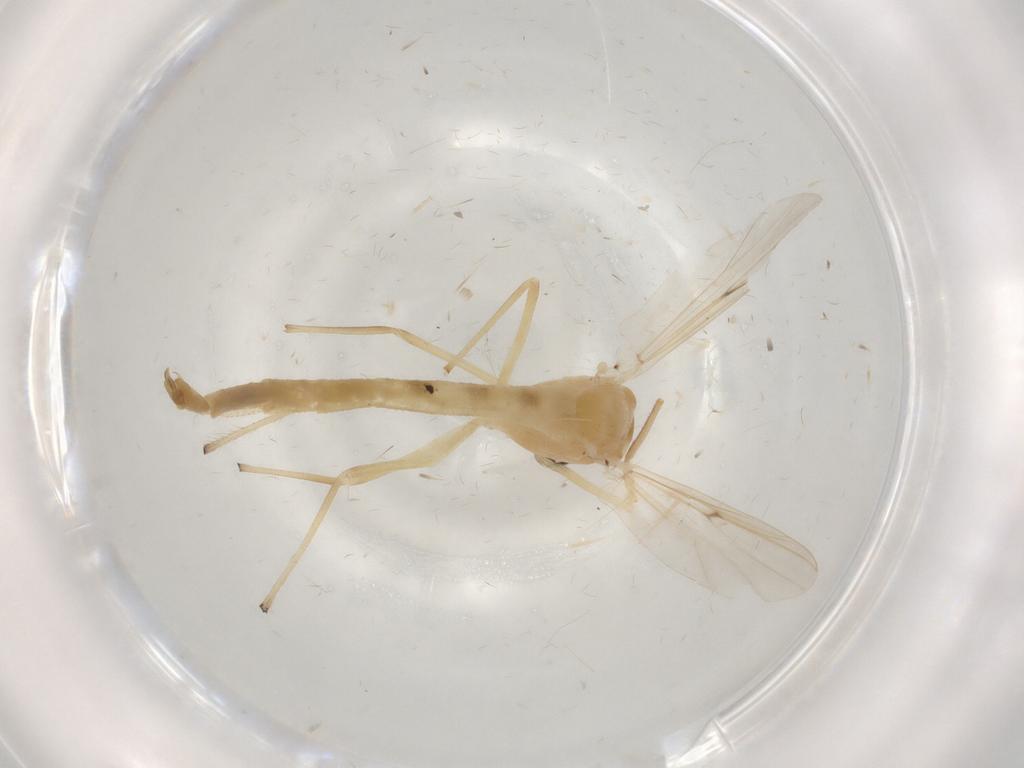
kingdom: Animalia
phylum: Arthropoda
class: Insecta
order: Diptera
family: Chironomidae
